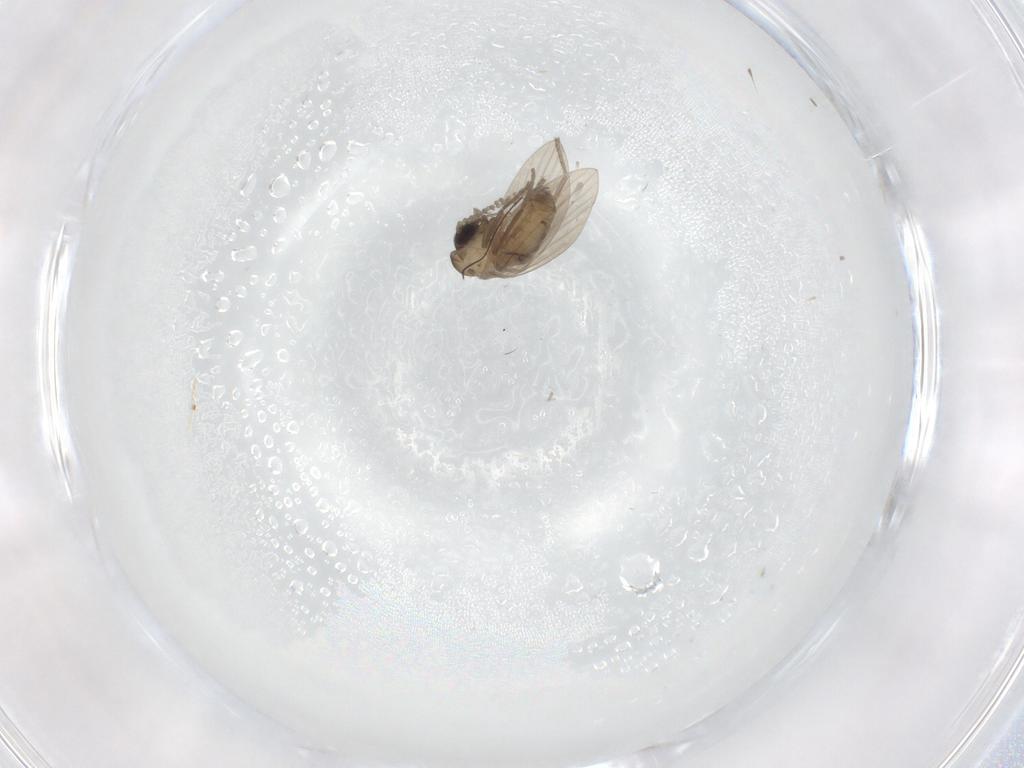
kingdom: Animalia
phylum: Arthropoda
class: Insecta
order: Diptera
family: Psychodidae
